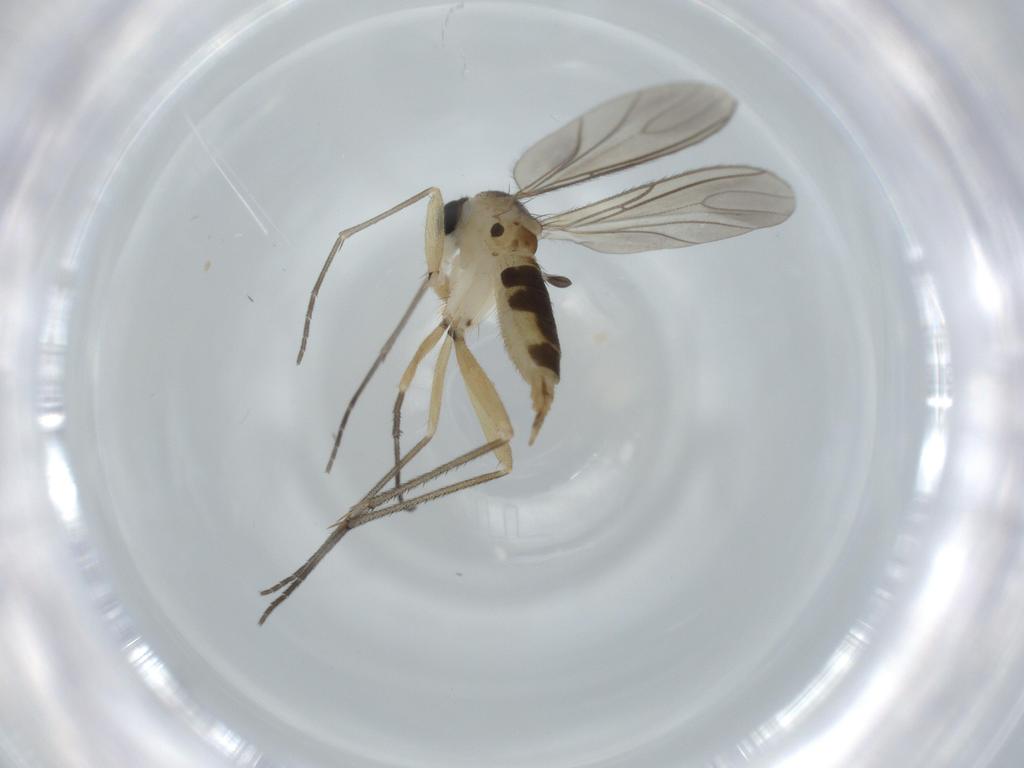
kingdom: Animalia
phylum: Arthropoda
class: Insecta
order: Diptera
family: Sciaridae
